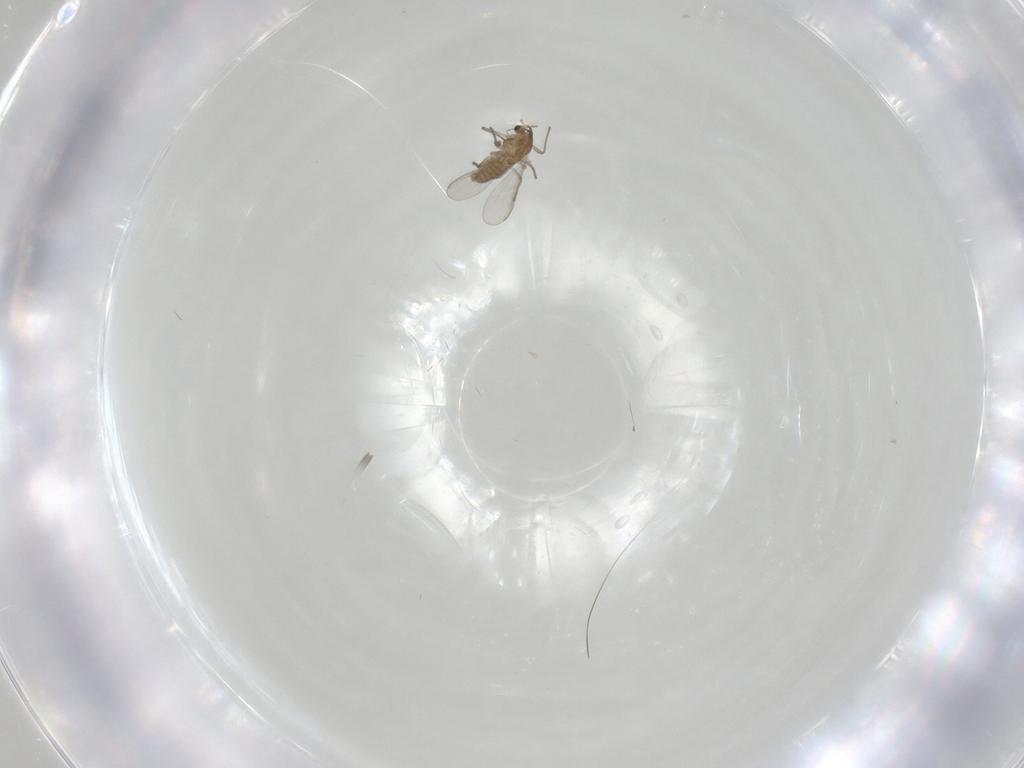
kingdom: Animalia
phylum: Arthropoda
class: Insecta
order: Diptera
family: Chironomidae
